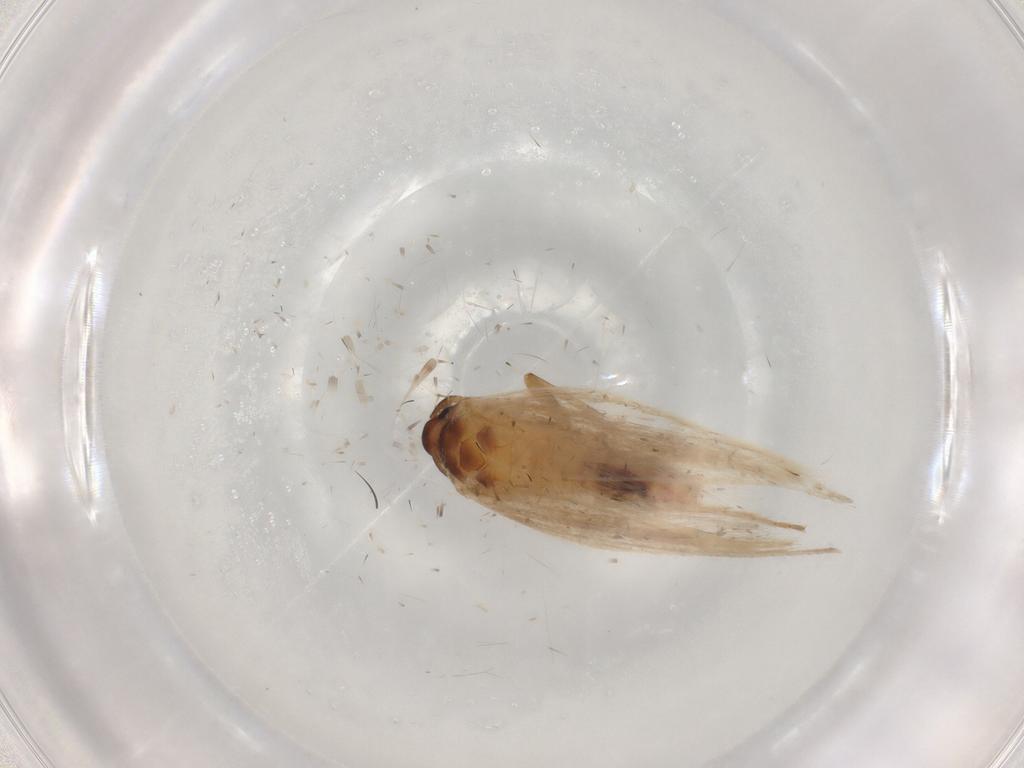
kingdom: Animalia
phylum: Arthropoda
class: Insecta
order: Lepidoptera
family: Gelechiidae
